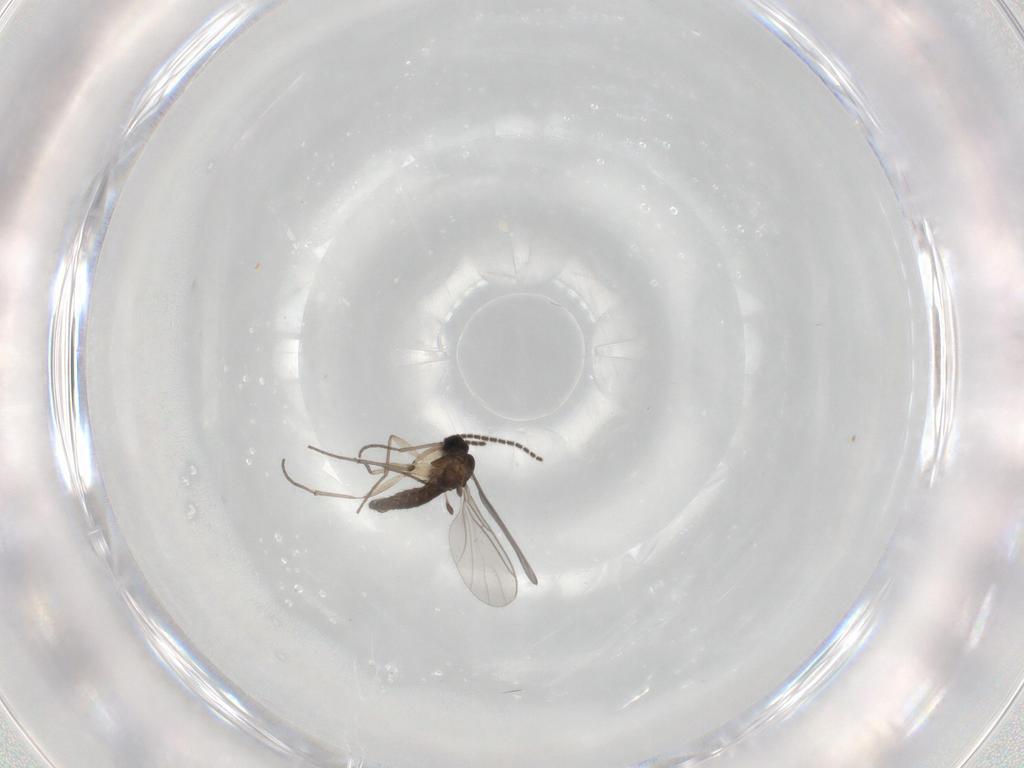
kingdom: Animalia
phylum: Arthropoda
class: Insecta
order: Diptera
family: Sciaridae
